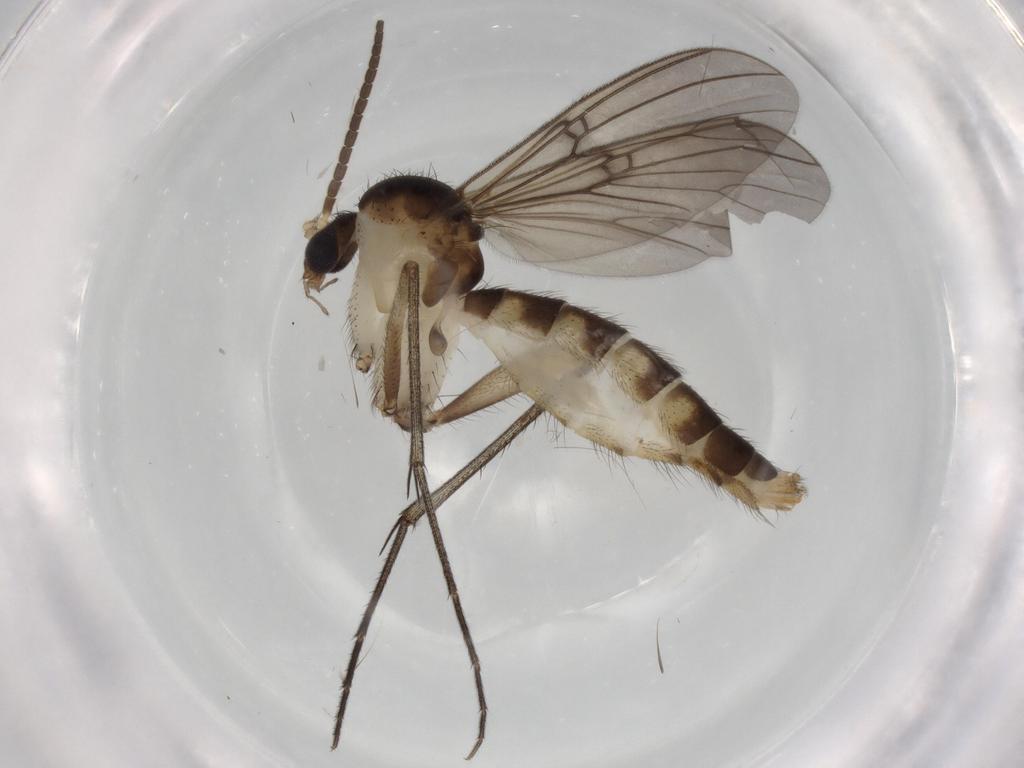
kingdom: Animalia
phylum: Arthropoda
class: Insecta
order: Diptera
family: Cecidomyiidae
